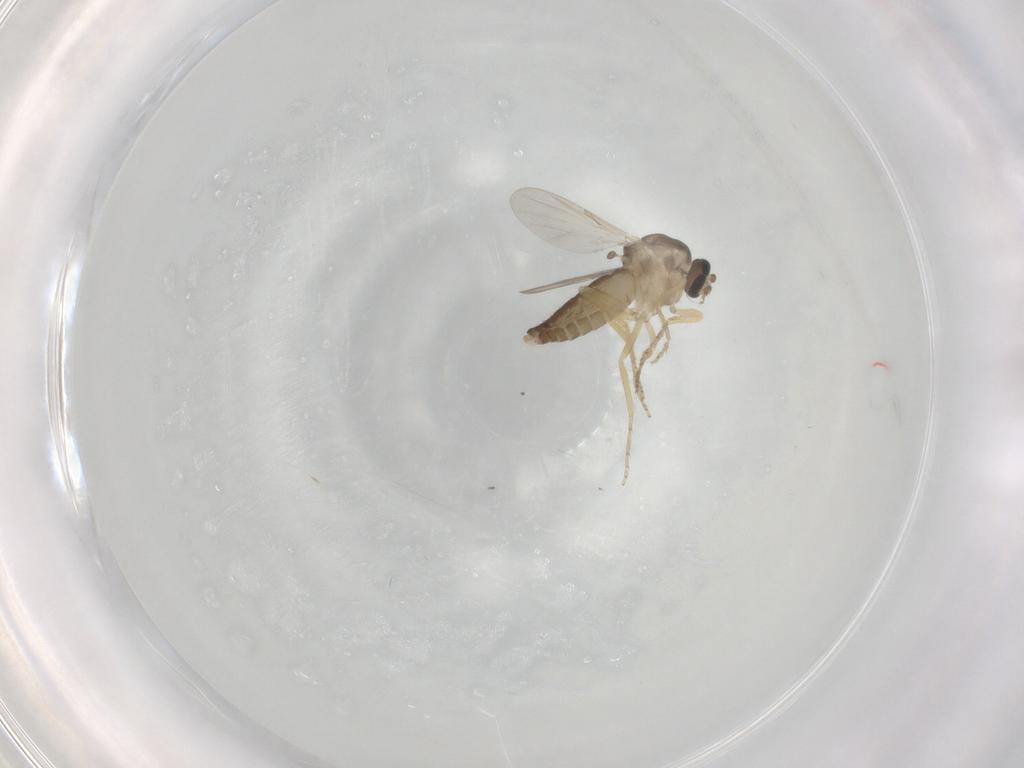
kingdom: Animalia
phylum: Arthropoda
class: Insecta
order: Diptera
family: Ceratopogonidae
